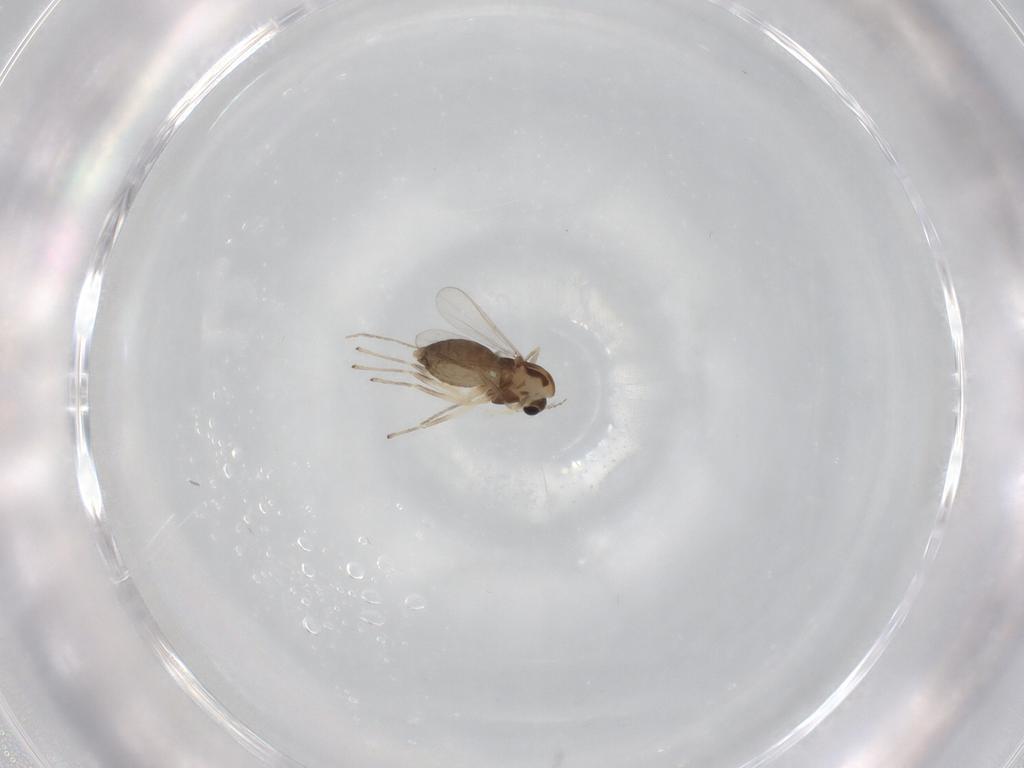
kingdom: Animalia
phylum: Arthropoda
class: Insecta
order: Diptera
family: Chironomidae
